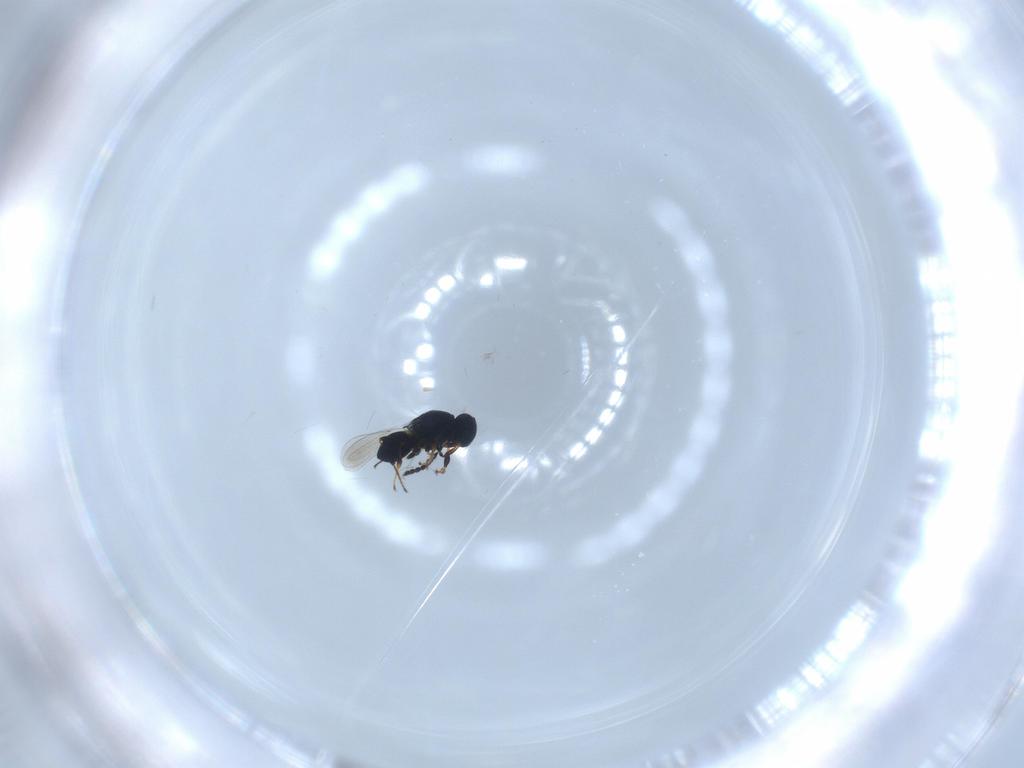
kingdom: Animalia
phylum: Arthropoda
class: Insecta
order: Hymenoptera
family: Platygastridae
